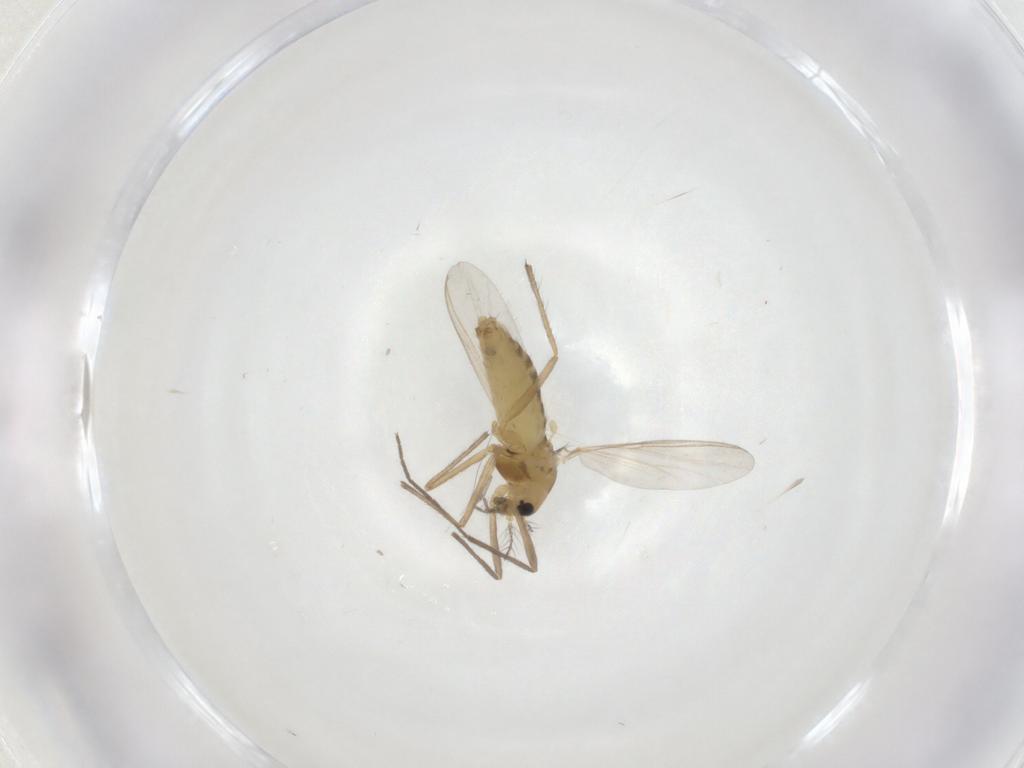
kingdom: Animalia
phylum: Arthropoda
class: Insecta
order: Diptera
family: Chironomidae
